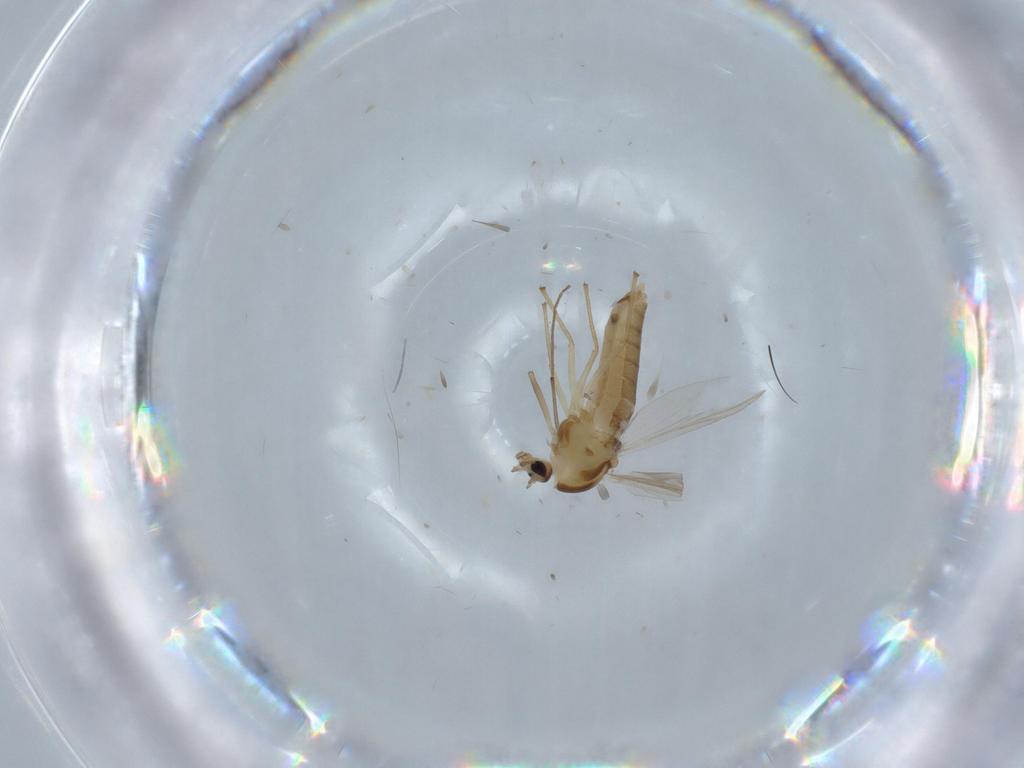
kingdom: Animalia
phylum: Arthropoda
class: Insecta
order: Diptera
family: Chironomidae
